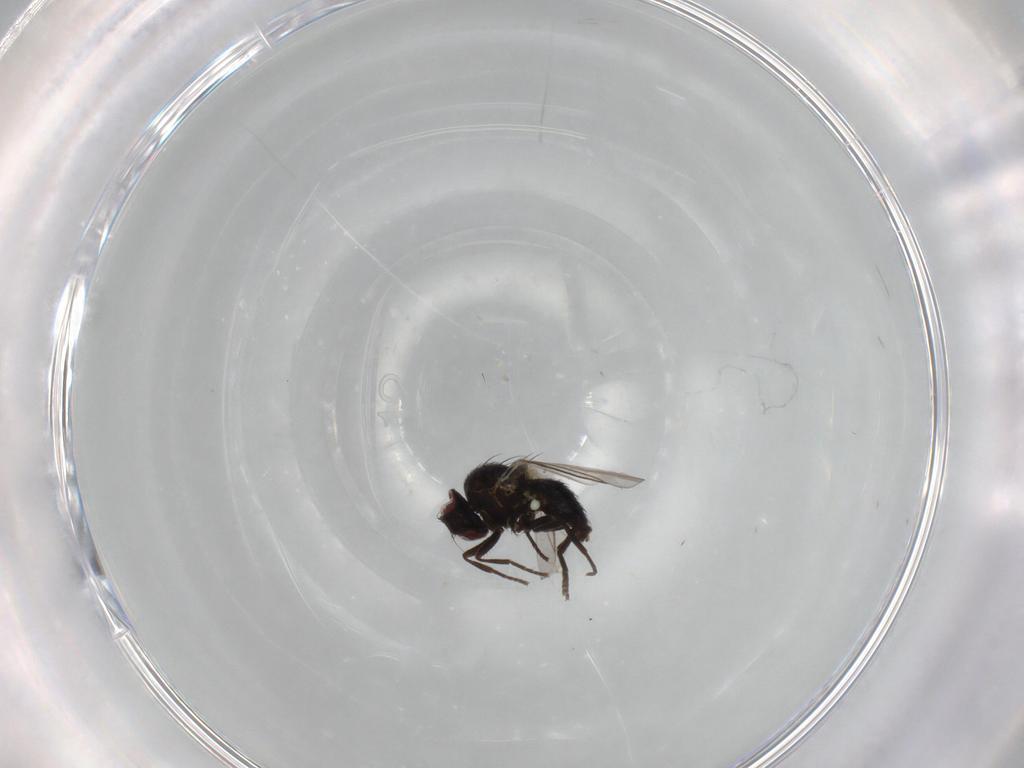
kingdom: Animalia
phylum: Arthropoda
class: Insecta
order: Diptera
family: Agromyzidae
